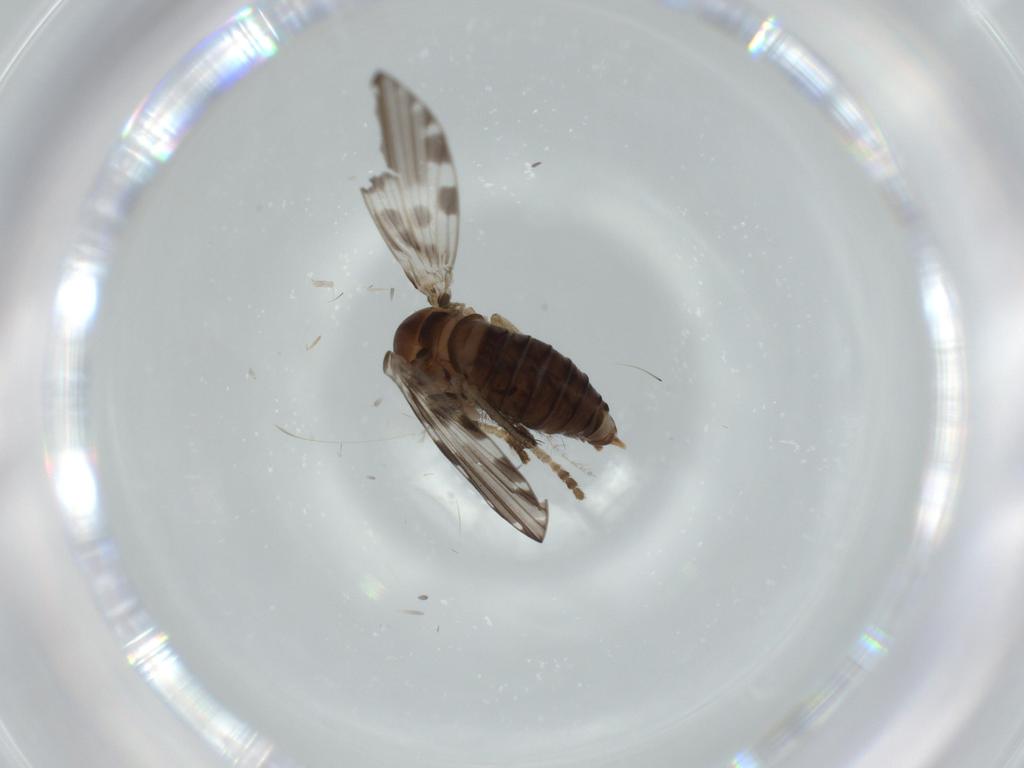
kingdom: Animalia
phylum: Arthropoda
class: Insecta
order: Diptera
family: Psychodidae
